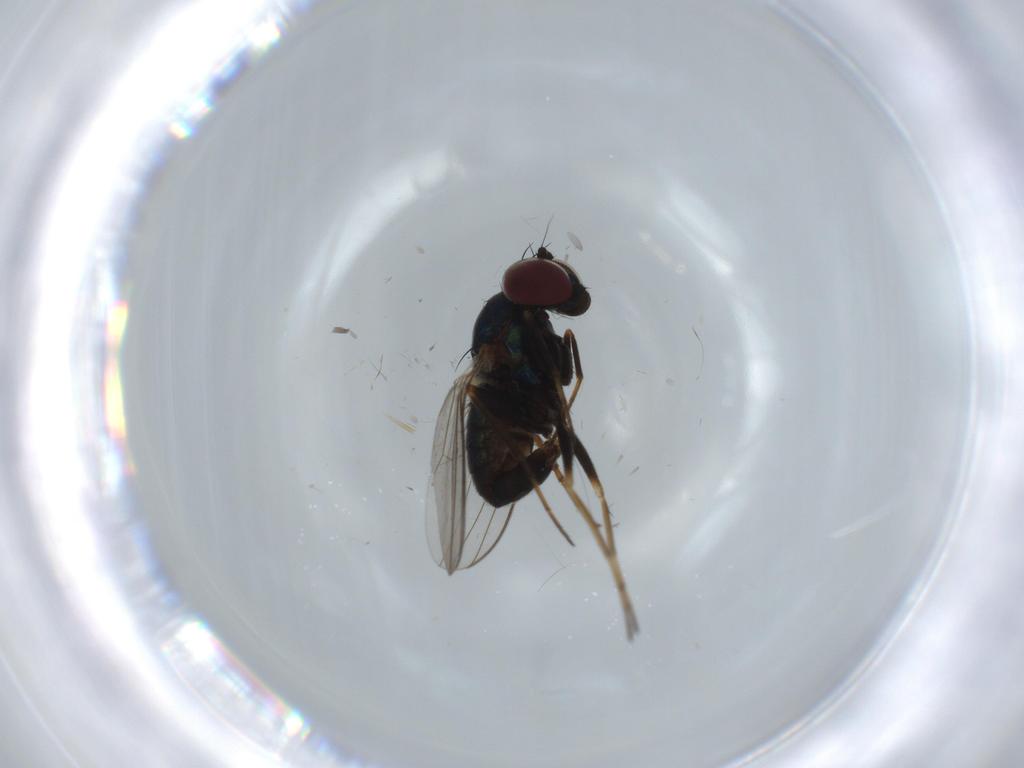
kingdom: Animalia
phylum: Arthropoda
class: Insecta
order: Diptera
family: Dolichopodidae
